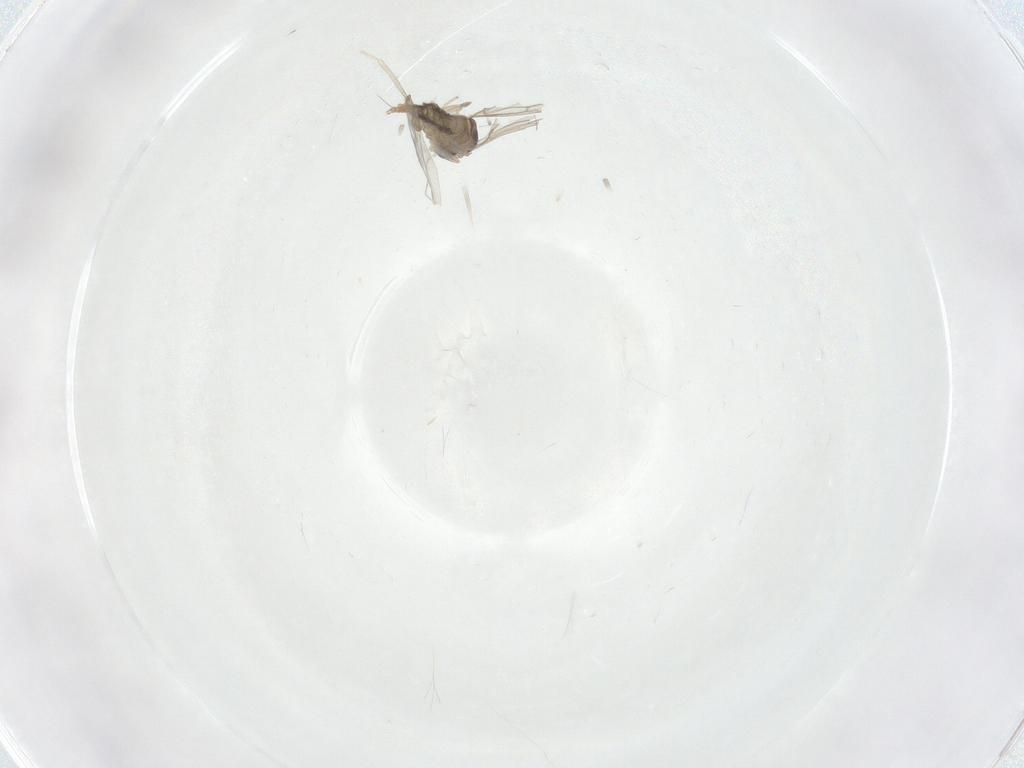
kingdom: Animalia
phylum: Arthropoda
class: Insecta
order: Diptera
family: Cecidomyiidae
